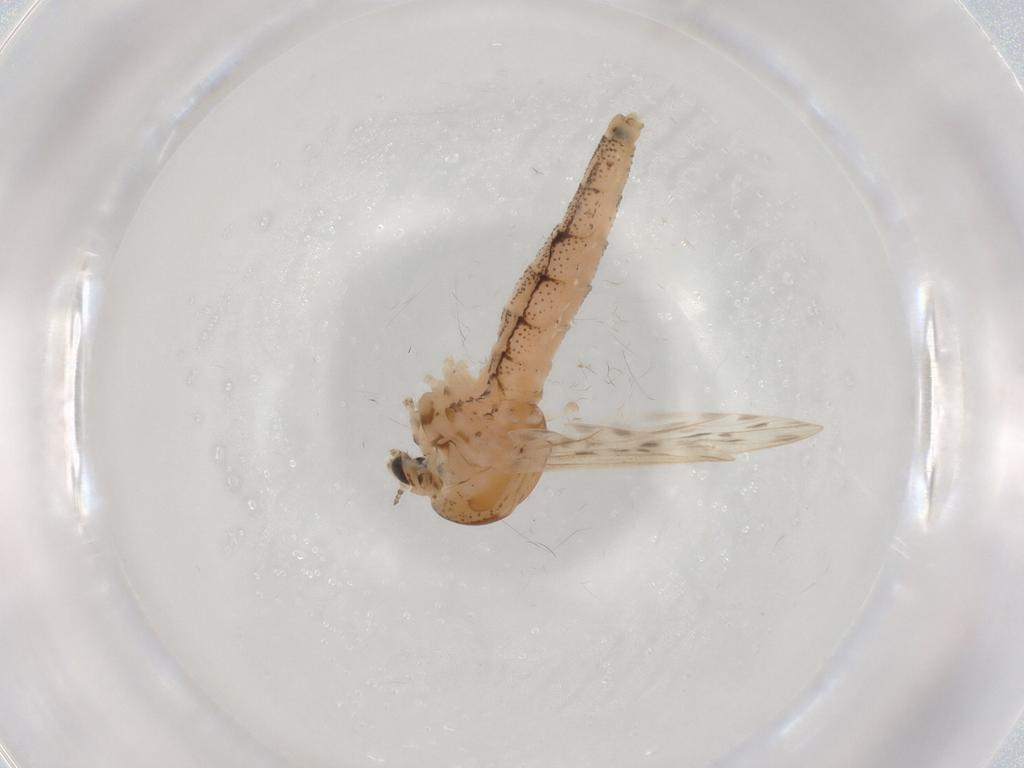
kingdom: Animalia
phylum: Arthropoda
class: Insecta
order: Diptera
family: Chaoboridae
